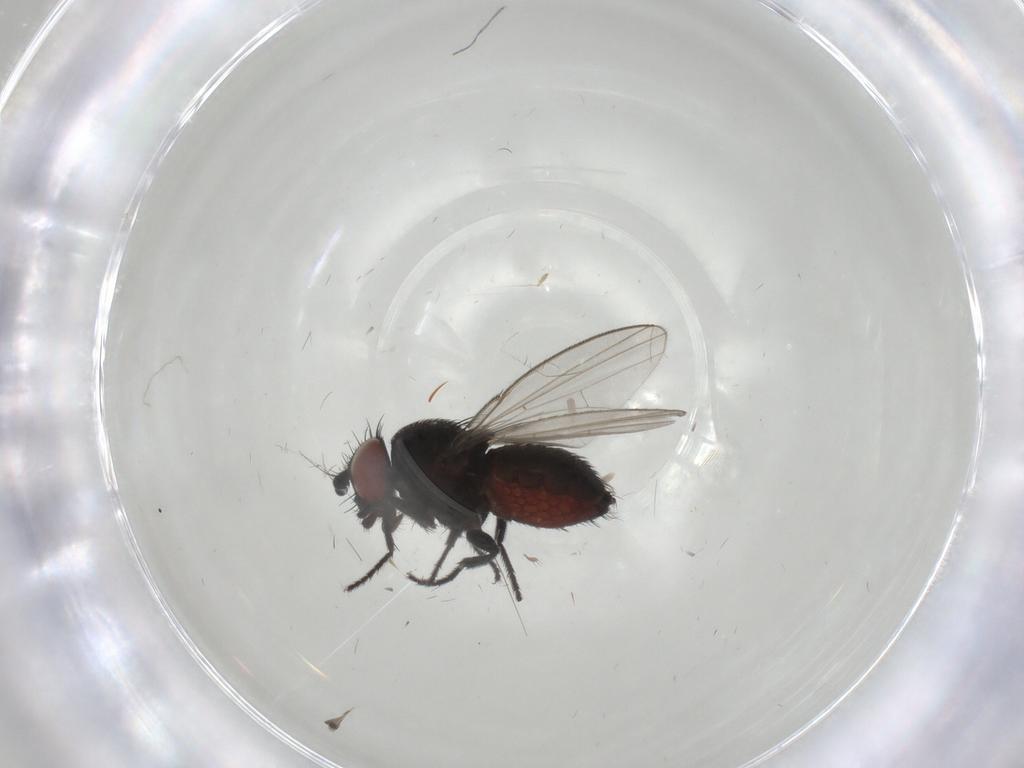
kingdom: Animalia
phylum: Arthropoda
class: Insecta
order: Diptera
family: Milichiidae
